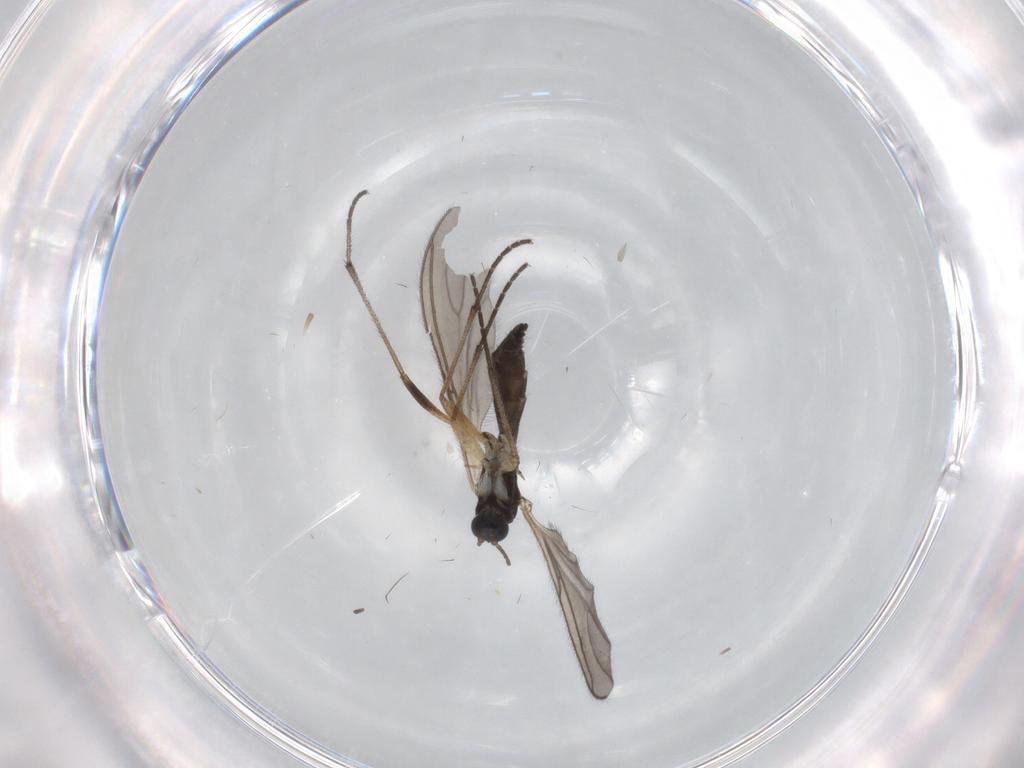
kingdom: Animalia
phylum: Arthropoda
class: Insecta
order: Diptera
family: Sciaridae
